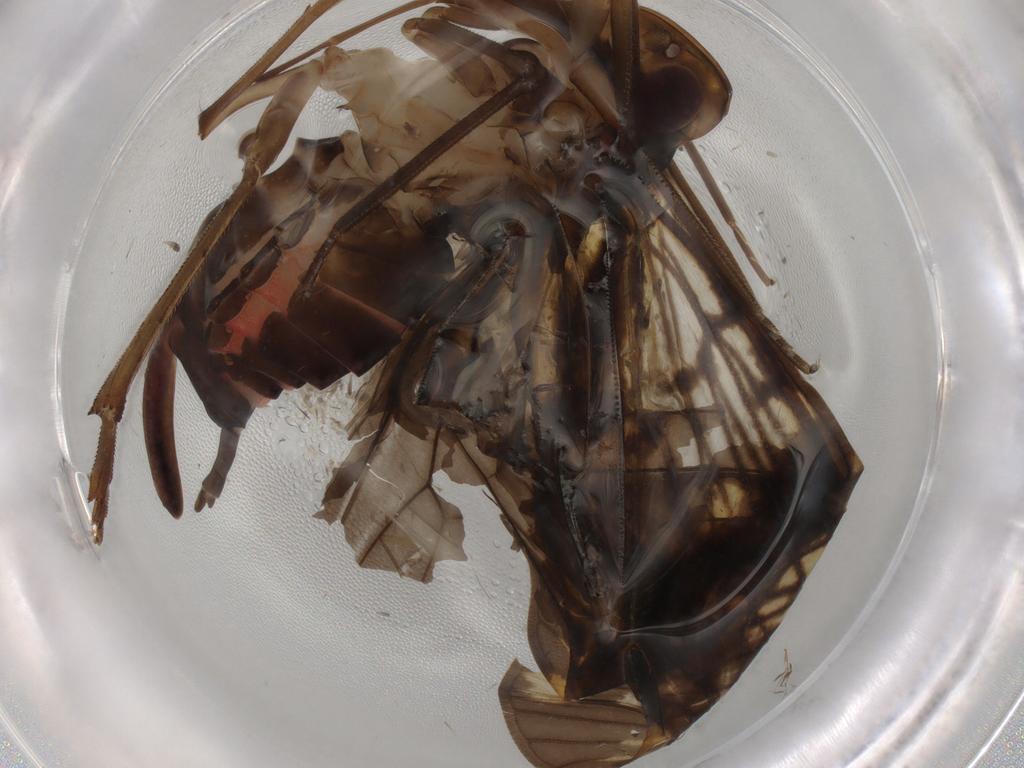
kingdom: Animalia
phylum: Arthropoda
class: Insecta
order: Hemiptera
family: Cixiidae
